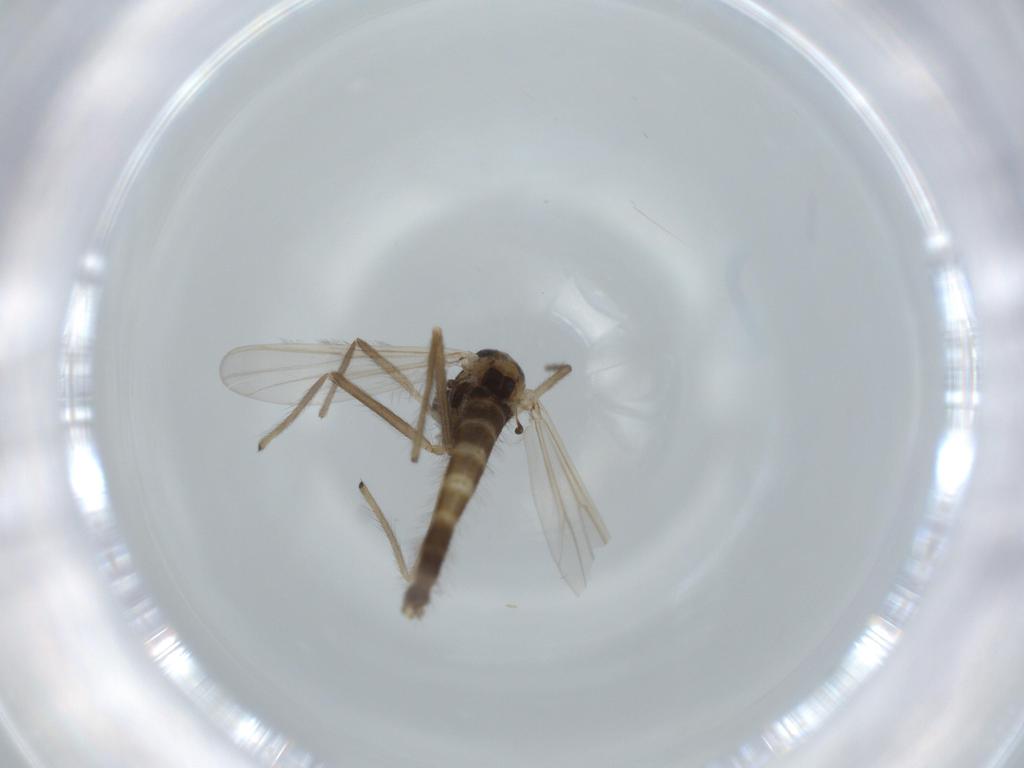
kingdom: Animalia
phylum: Arthropoda
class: Insecta
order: Diptera
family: Chironomidae
